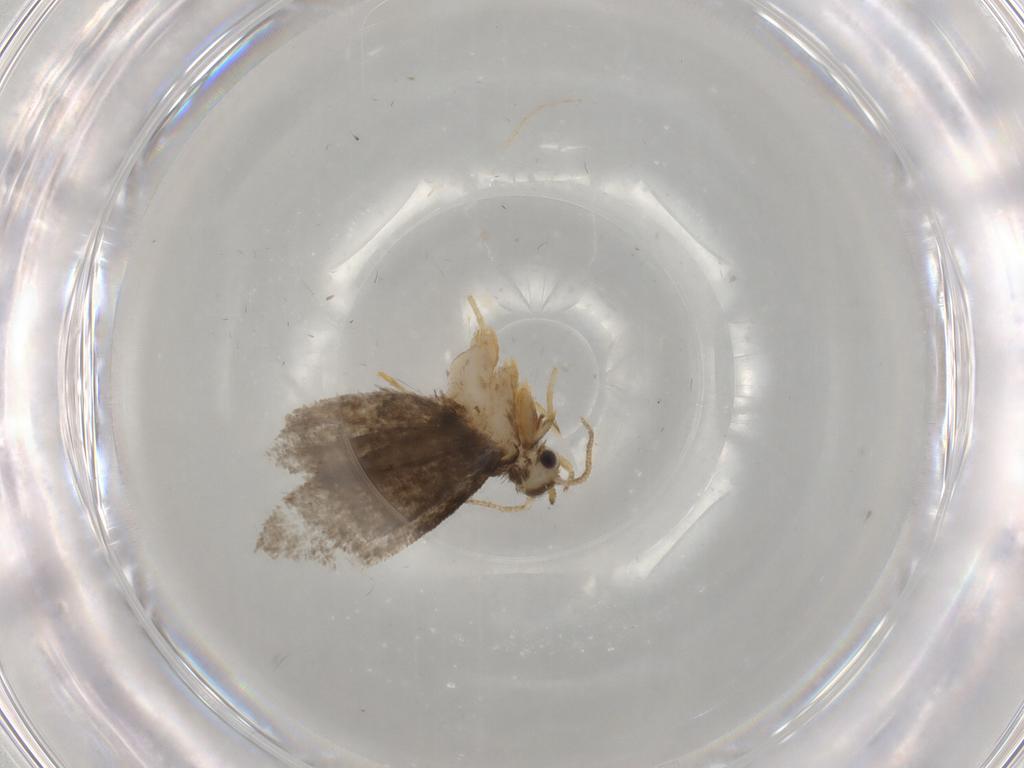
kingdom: Animalia
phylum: Arthropoda
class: Insecta
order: Lepidoptera
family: Psychidae
